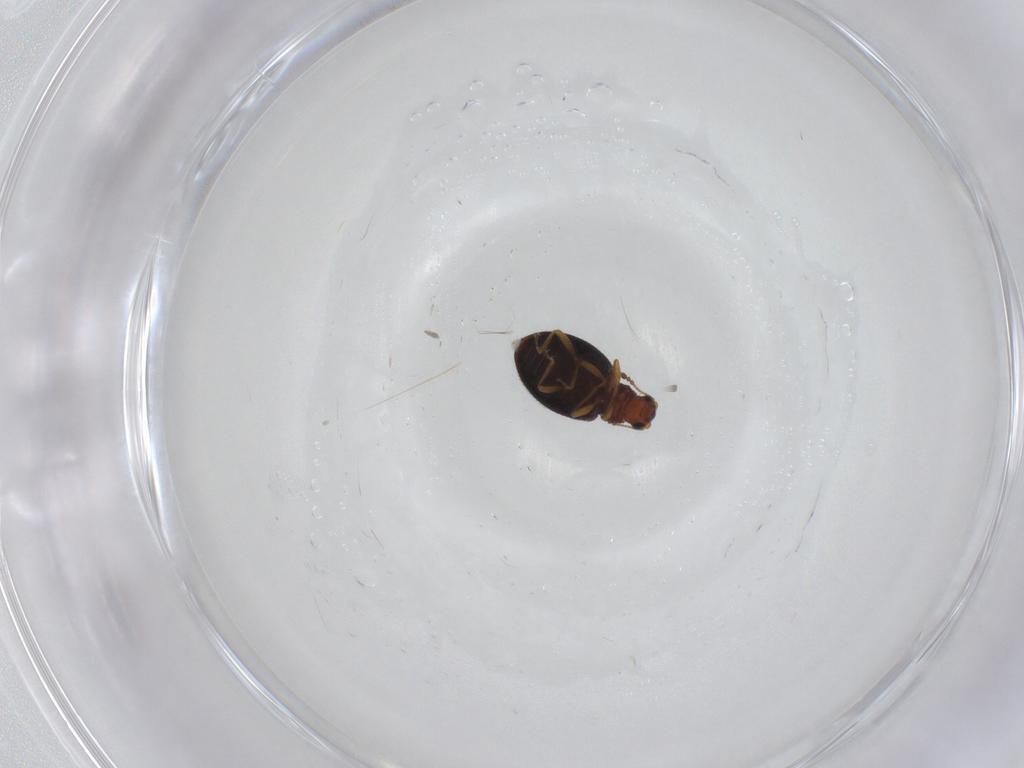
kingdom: Animalia
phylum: Arthropoda
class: Insecta
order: Coleoptera
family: Latridiidae
